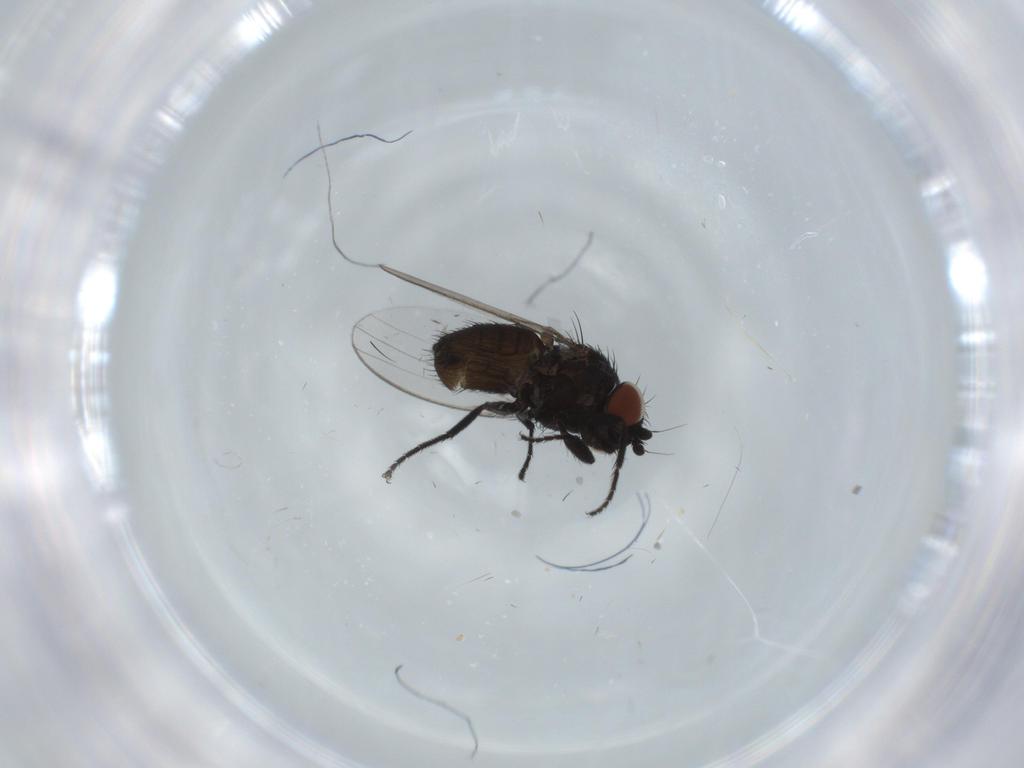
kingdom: Animalia
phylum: Arthropoda
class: Insecta
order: Diptera
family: Milichiidae
